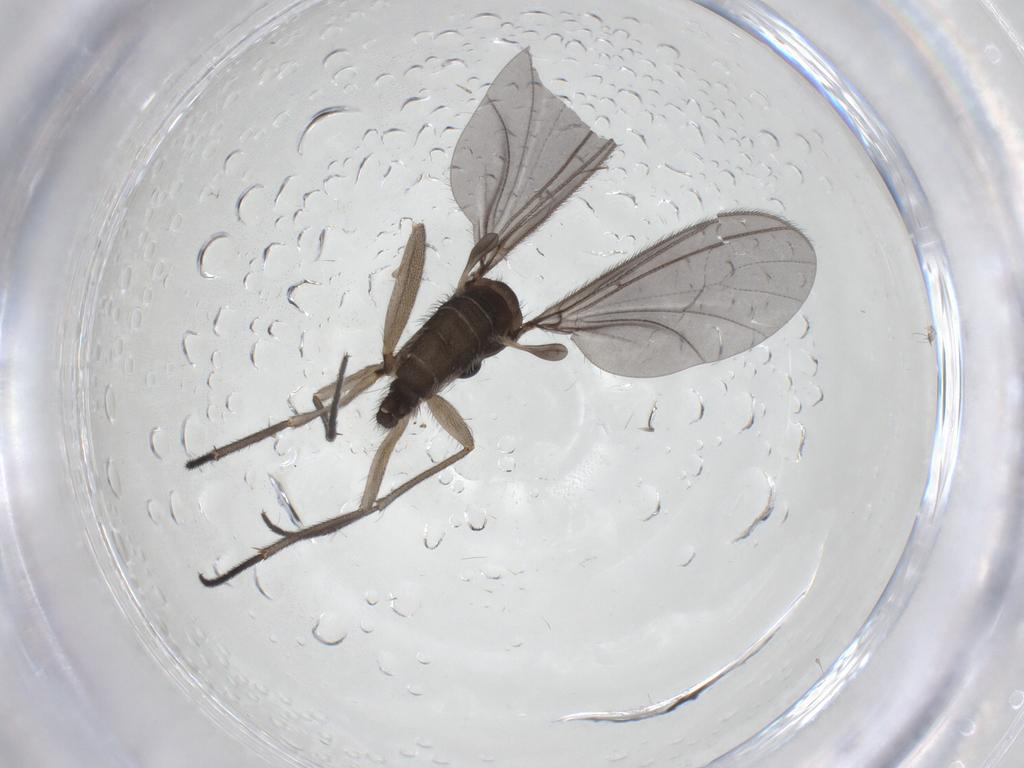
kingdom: Animalia
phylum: Arthropoda
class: Insecta
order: Diptera
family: Sciaridae
